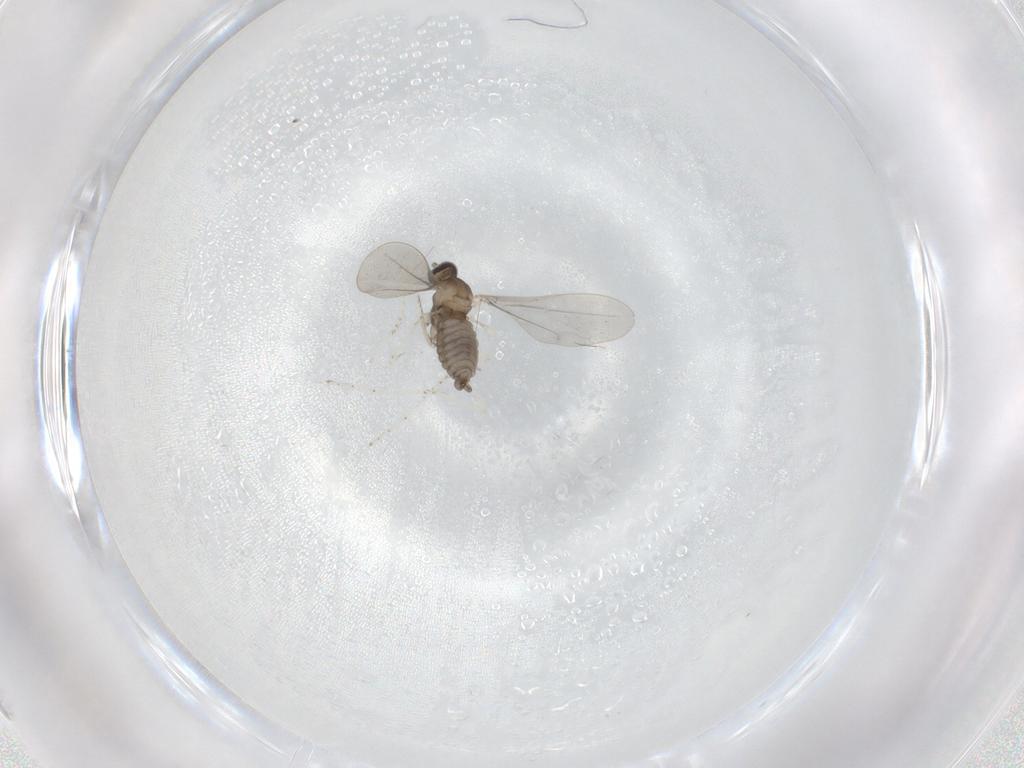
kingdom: Animalia
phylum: Arthropoda
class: Insecta
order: Diptera
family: Cecidomyiidae
